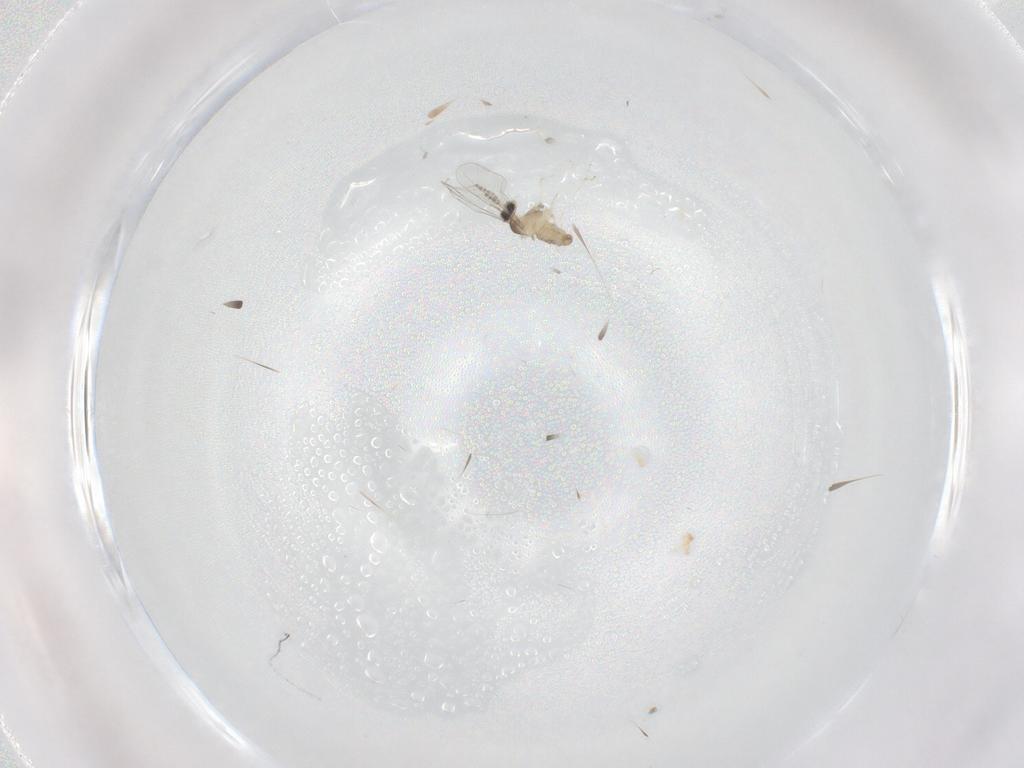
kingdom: Animalia
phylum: Arthropoda
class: Insecta
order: Diptera
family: Cecidomyiidae
